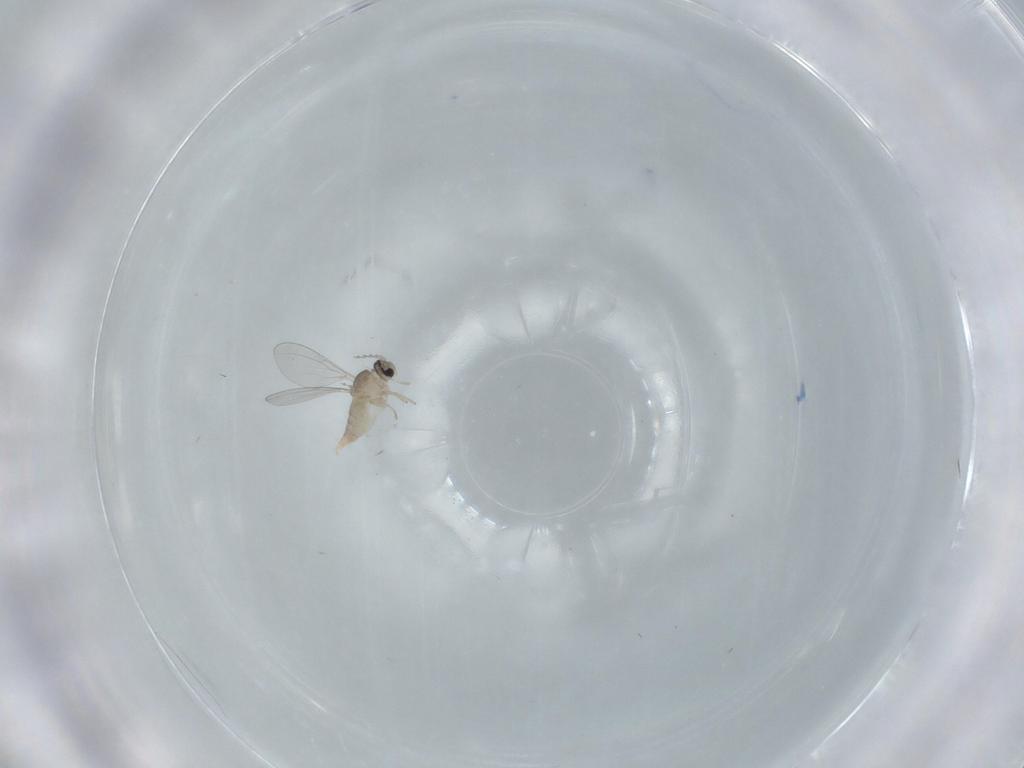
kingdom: Animalia
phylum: Arthropoda
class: Insecta
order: Diptera
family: Cecidomyiidae
